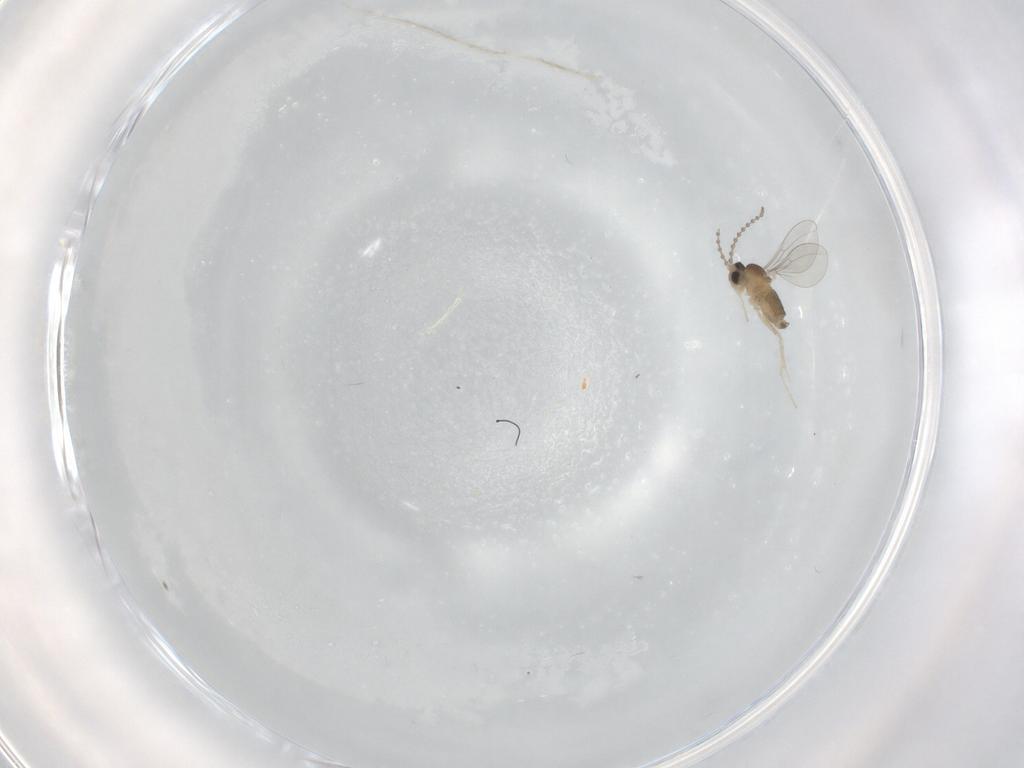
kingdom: Animalia
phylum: Arthropoda
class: Insecta
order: Diptera
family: Cecidomyiidae
